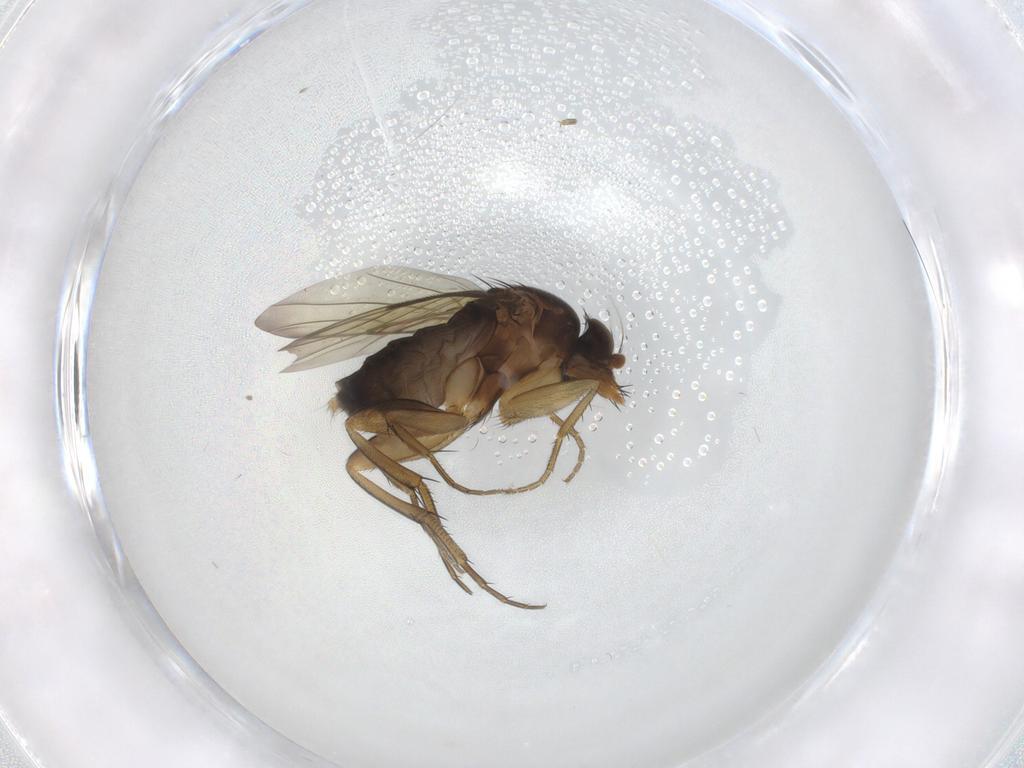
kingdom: Animalia
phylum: Arthropoda
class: Insecta
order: Diptera
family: Phoridae
